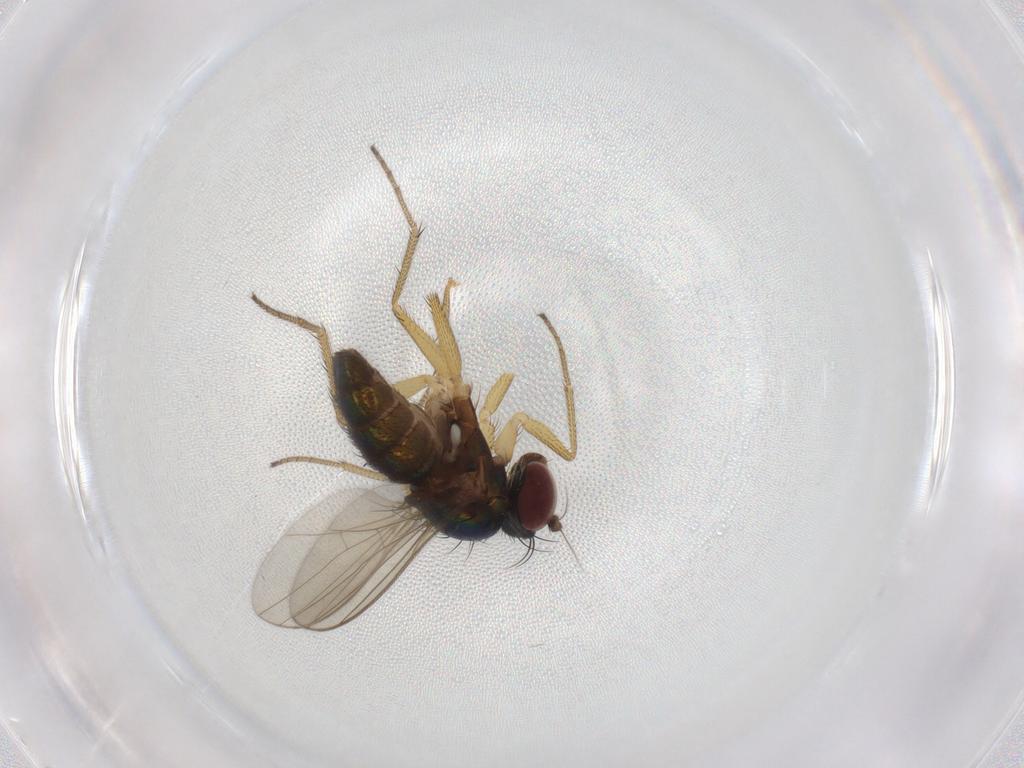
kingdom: Animalia
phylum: Arthropoda
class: Insecta
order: Diptera
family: Dolichopodidae
